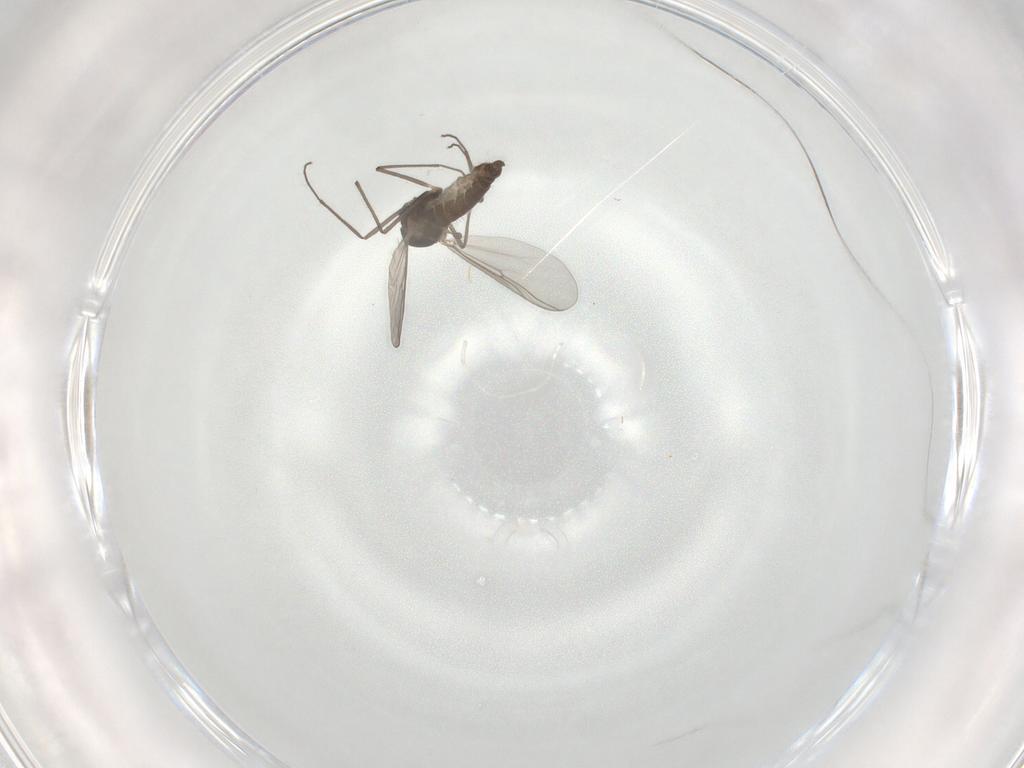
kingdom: Animalia
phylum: Arthropoda
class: Insecta
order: Diptera
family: Chironomidae
